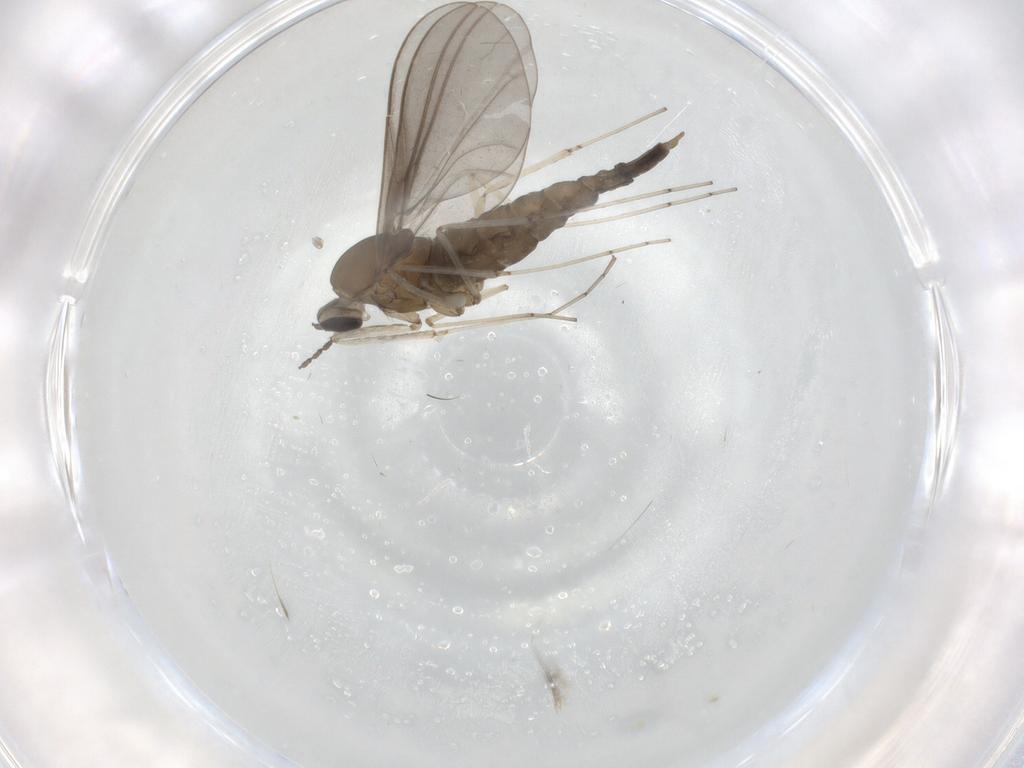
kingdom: Animalia
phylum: Arthropoda
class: Insecta
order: Diptera
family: Cecidomyiidae
